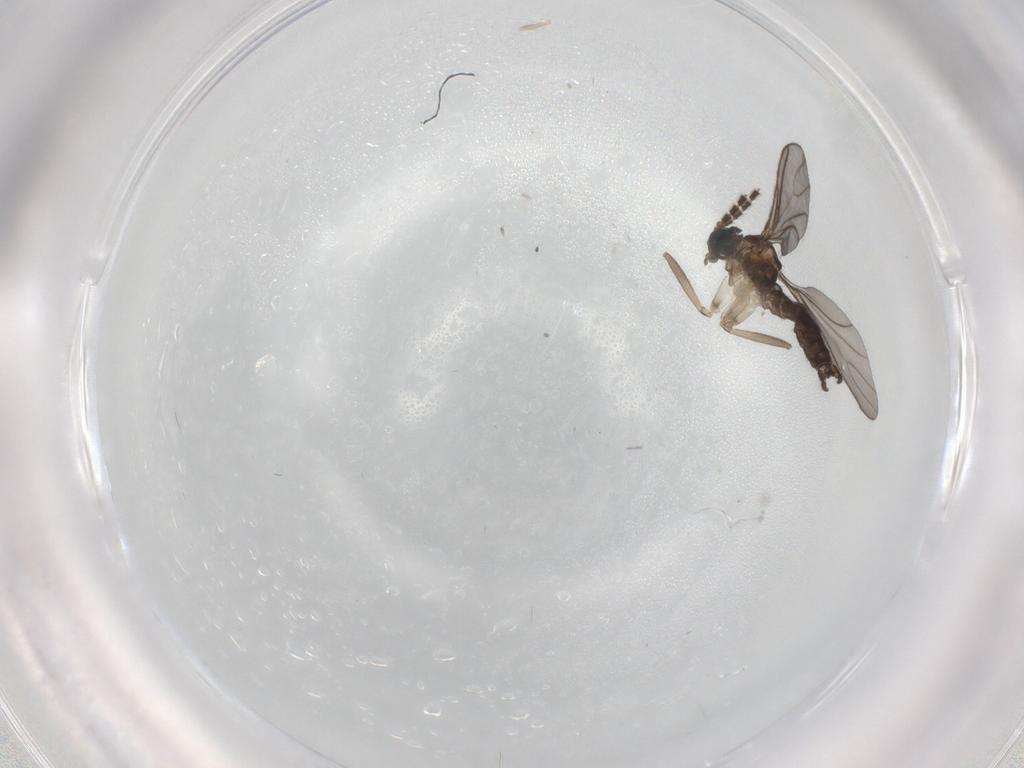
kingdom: Animalia
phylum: Arthropoda
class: Insecta
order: Diptera
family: Sciaridae
